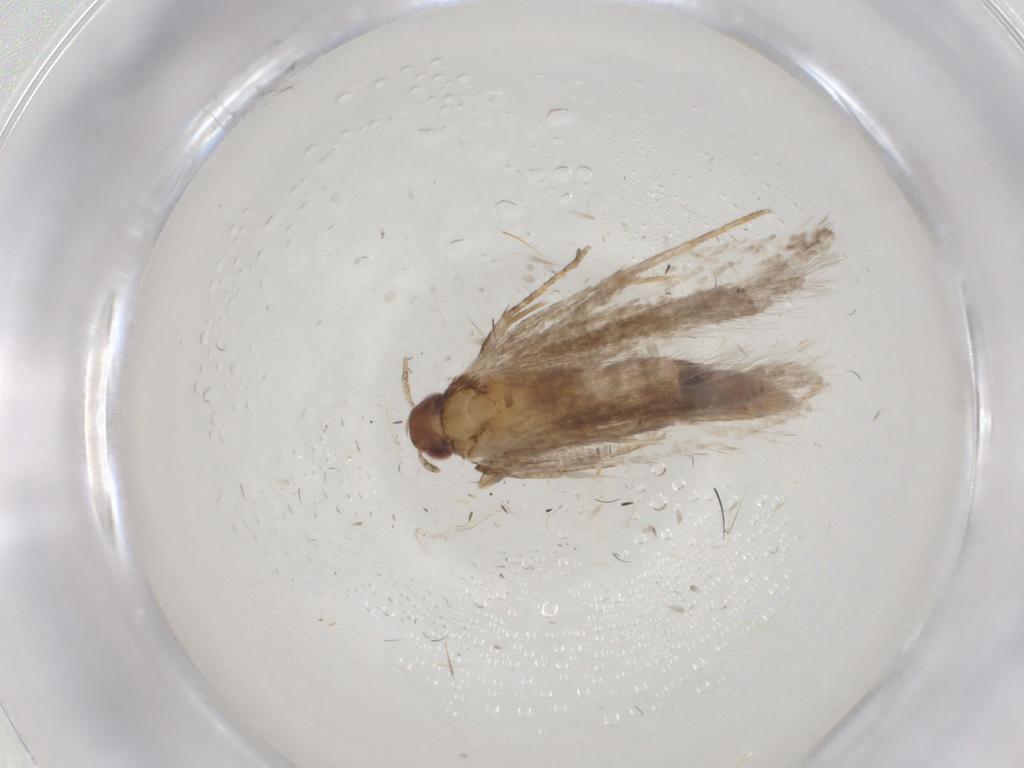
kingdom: Animalia
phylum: Arthropoda
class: Insecta
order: Lepidoptera
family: Gelechiidae
